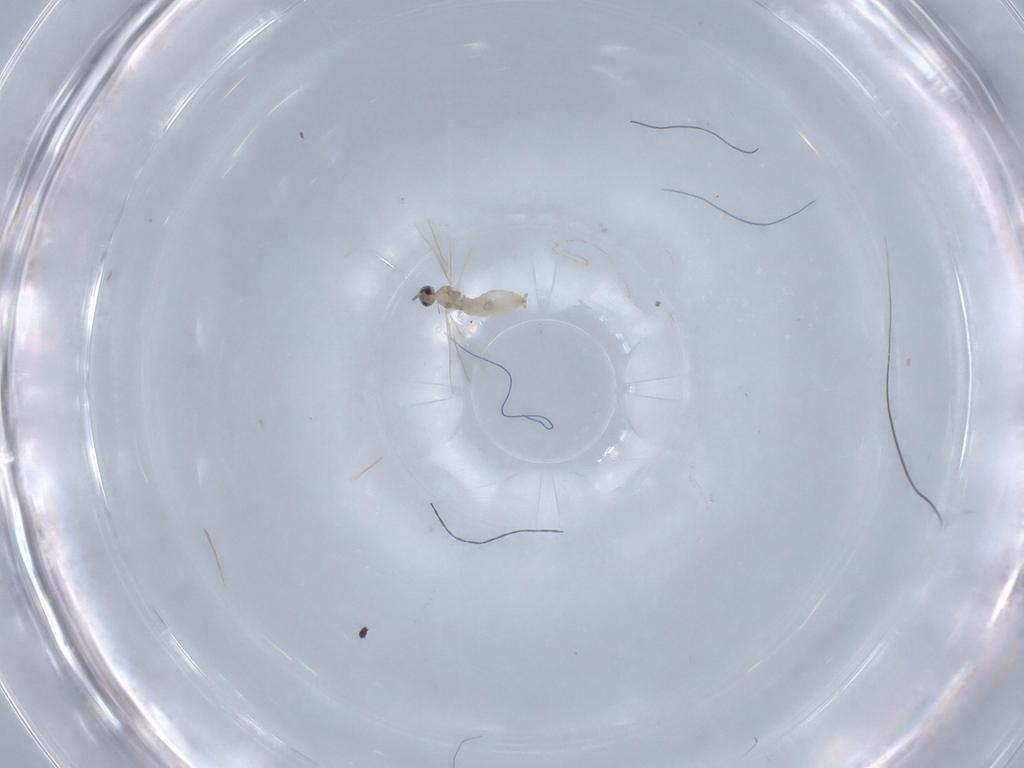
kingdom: Animalia
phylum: Arthropoda
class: Insecta
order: Diptera
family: Cecidomyiidae
